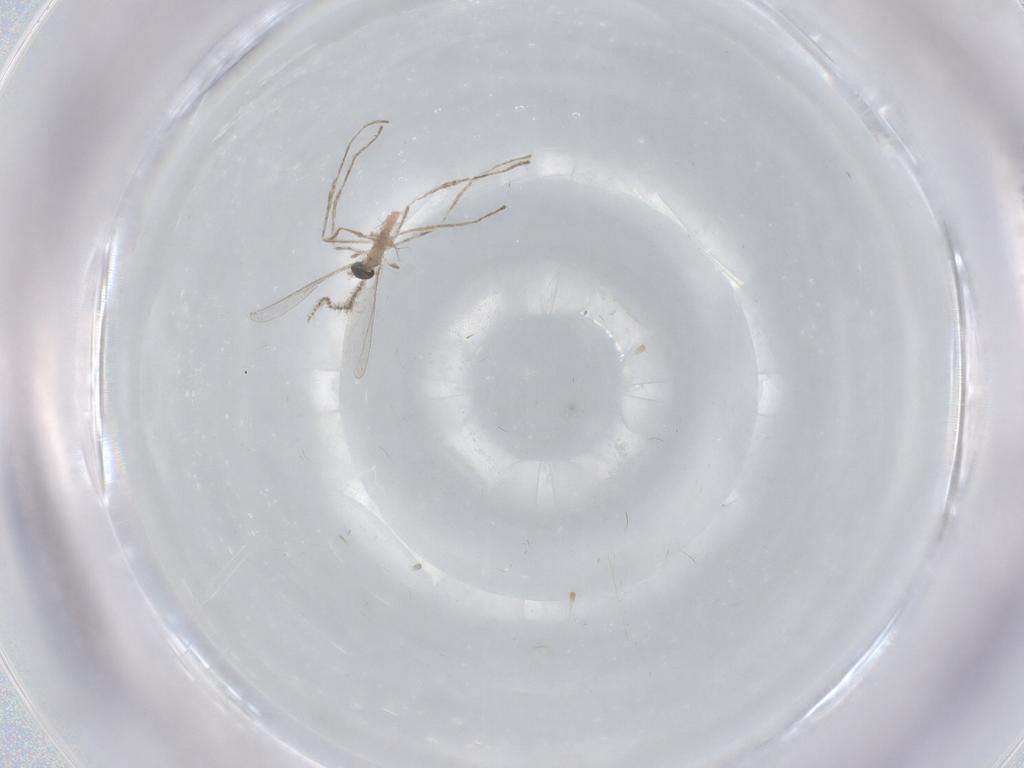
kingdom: Animalia
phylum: Arthropoda
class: Insecta
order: Diptera
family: Cecidomyiidae
